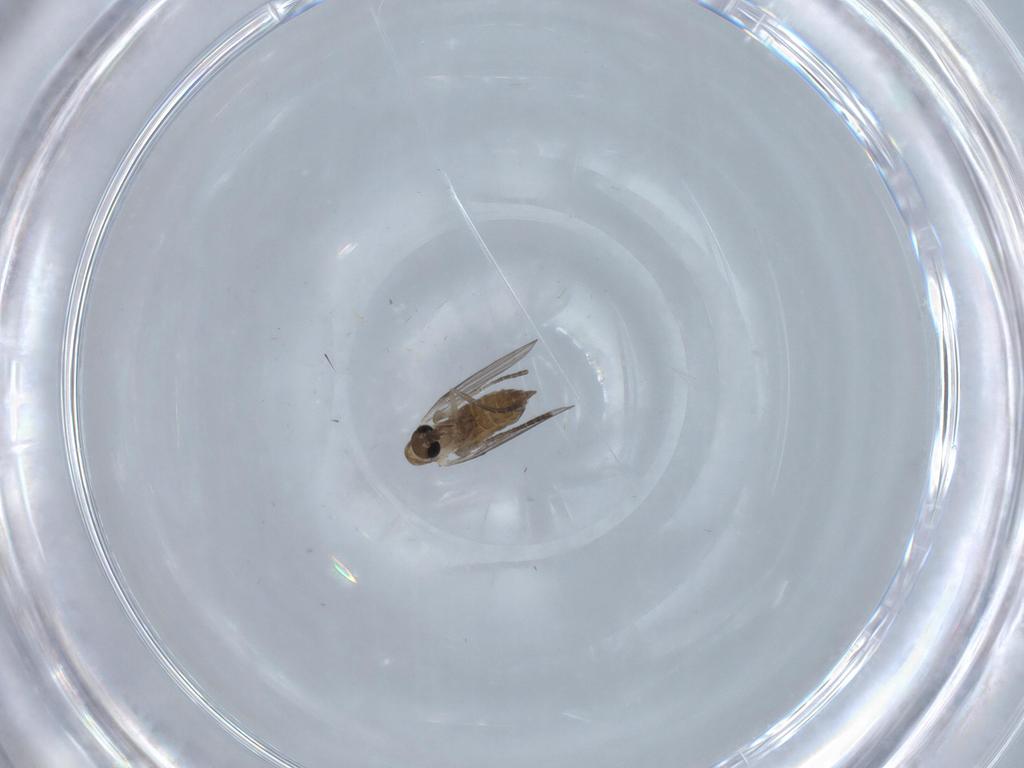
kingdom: Animalia
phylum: Arthropoda
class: Insecta
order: Diptera
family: Psychodidae
